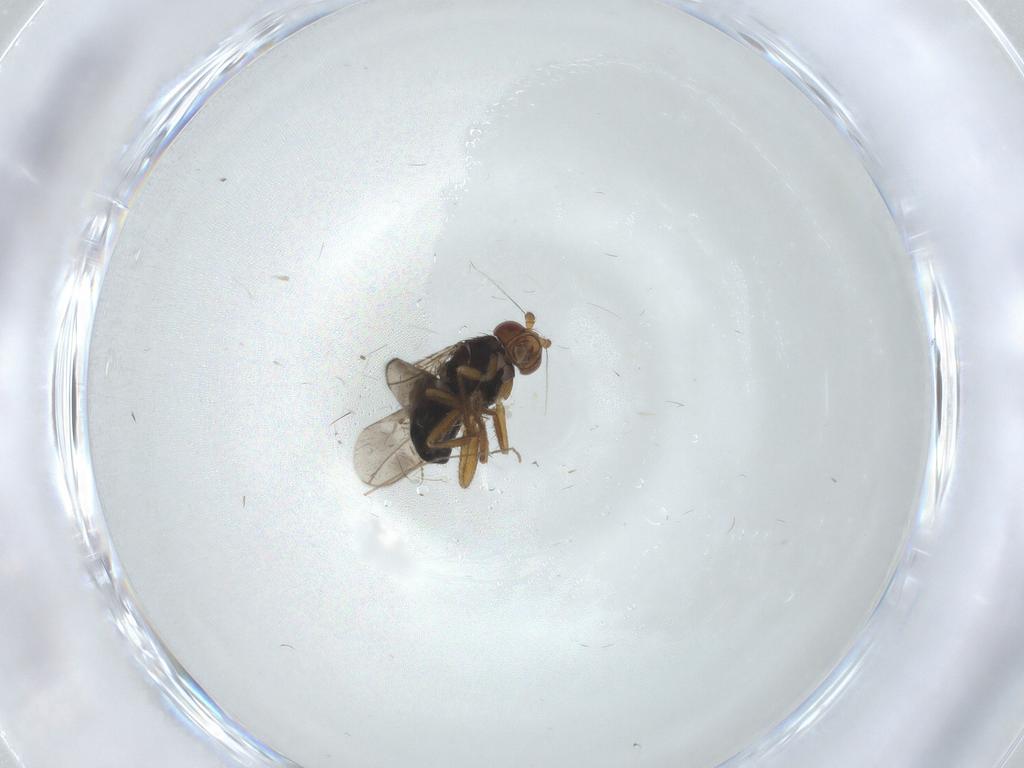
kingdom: Animalia
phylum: Arthropoda
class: Insecta
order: Diptera
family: Sphaeroceridae
